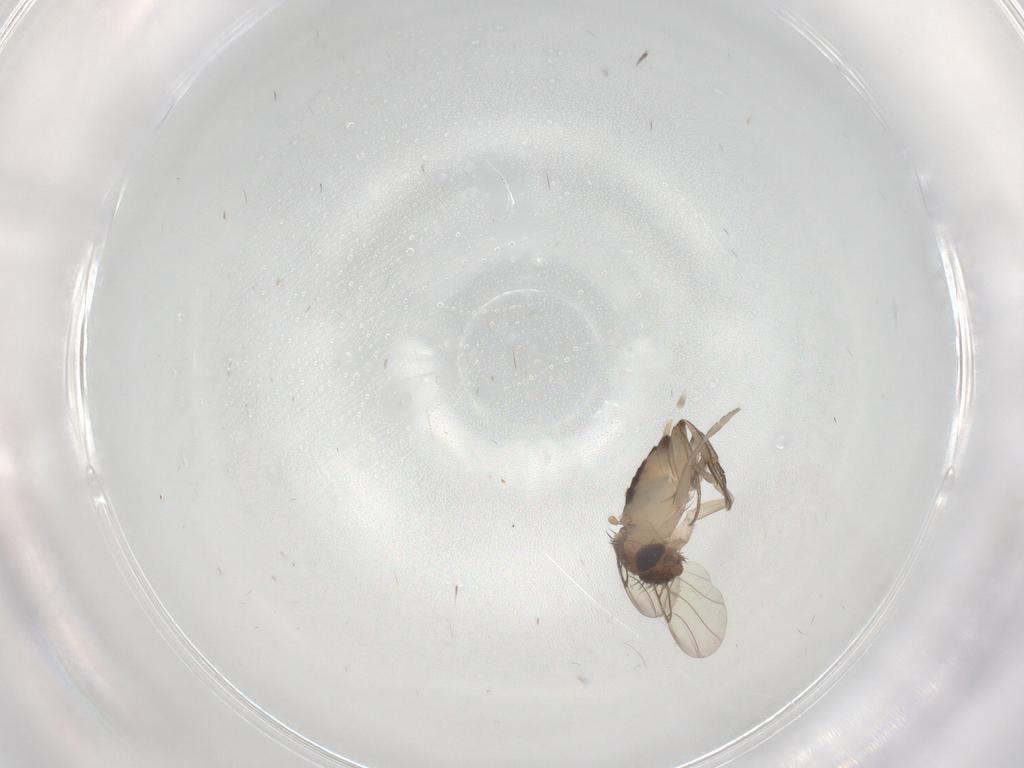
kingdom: Animalia
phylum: Arthropoda
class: Insecta
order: Diptera
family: Phoridae
